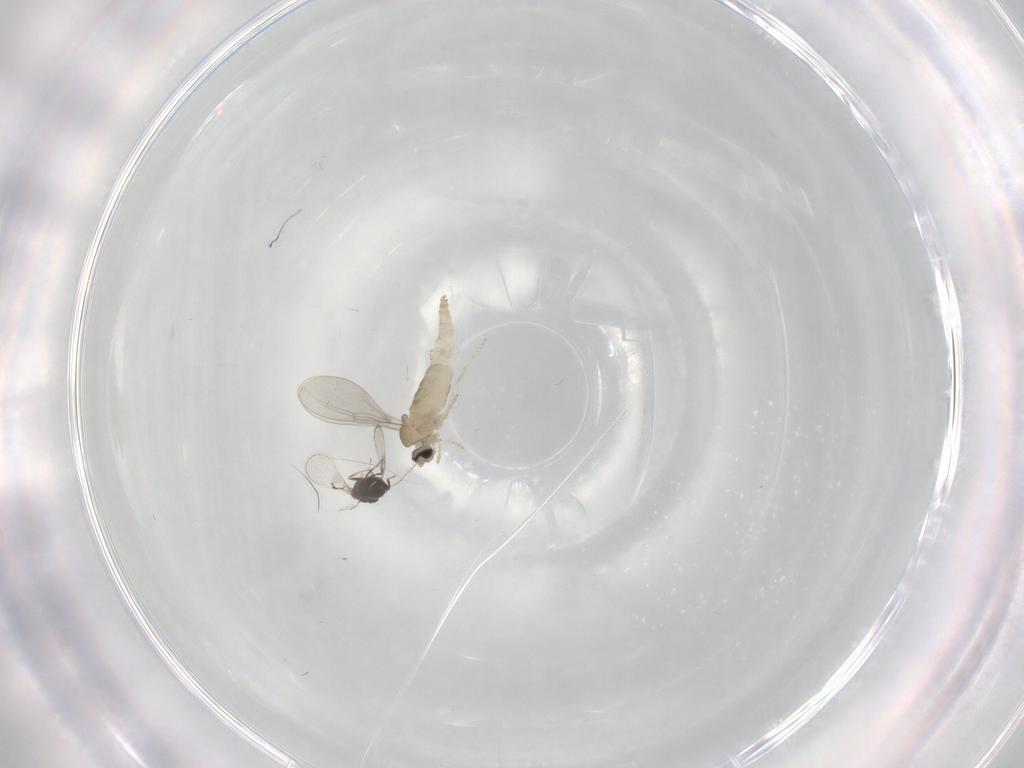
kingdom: Animalia
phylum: Arthropoda
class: Insecta
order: Diptera
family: Cecidomyiidae
